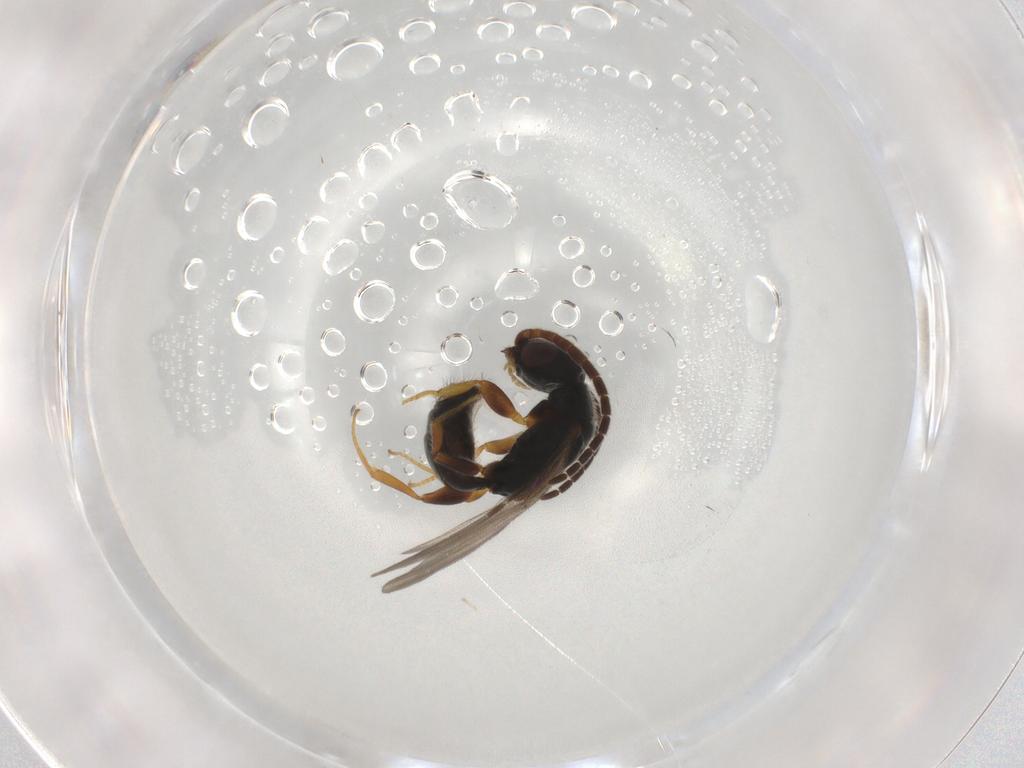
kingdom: Animalia
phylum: Arthropoda
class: Insecta
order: Hymenoptera
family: Bethylidae
